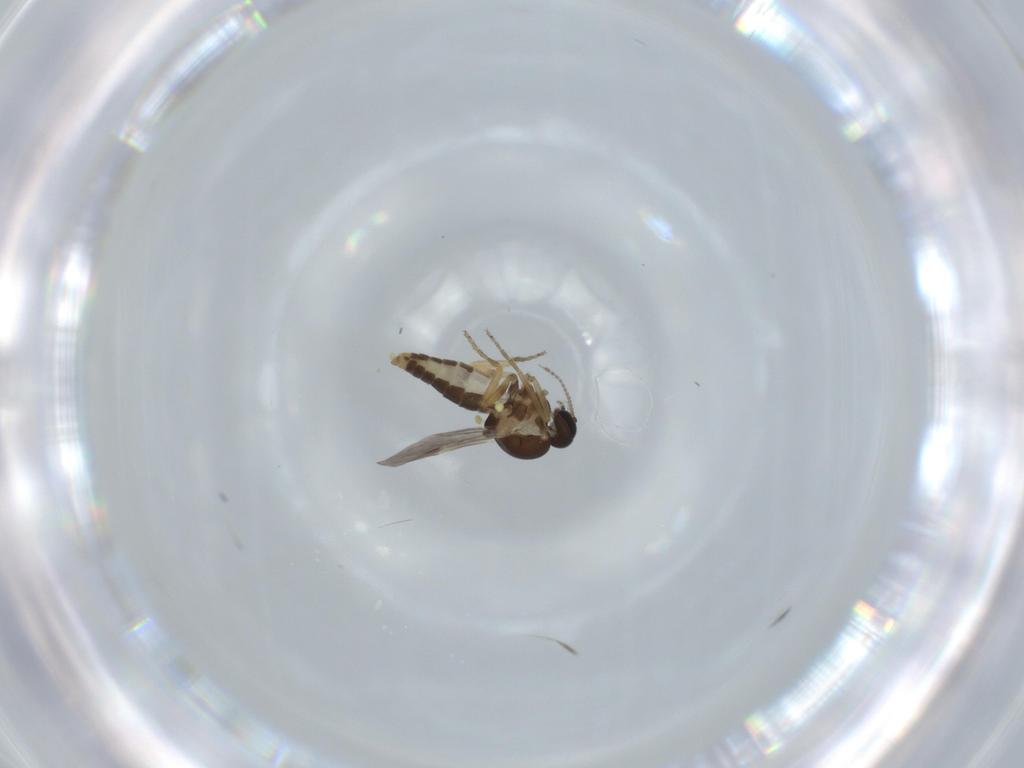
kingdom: Animalia
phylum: Arthropoda
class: Insecta
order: Diptera
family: Ceratopogonidae
